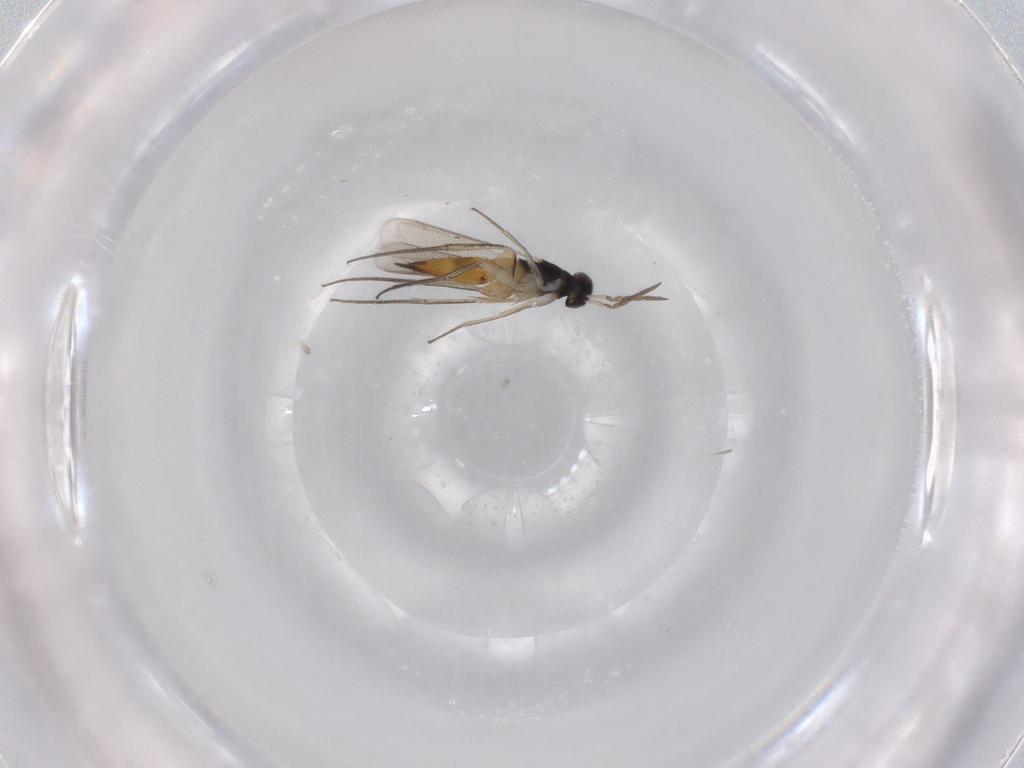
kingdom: Animalia
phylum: Arthropoda
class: Insecta
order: Hymenoptera
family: Eulophidae
